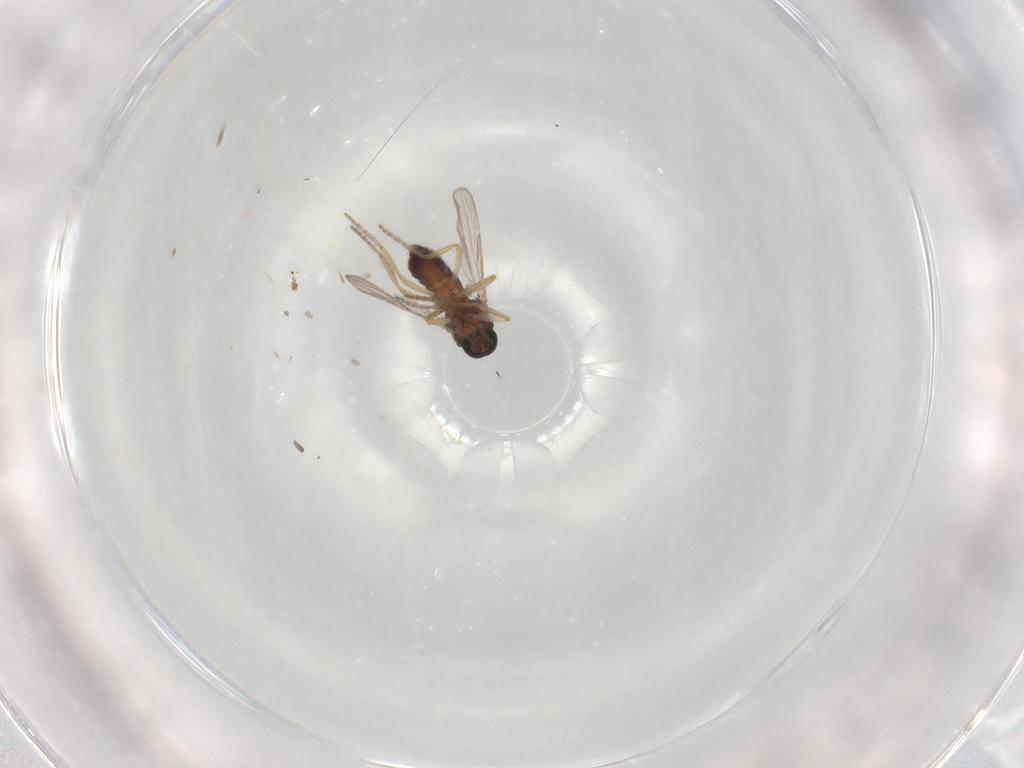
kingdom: Animalia
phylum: Arthropoda
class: Insecta
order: Diptera
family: Ceratopogonidae
